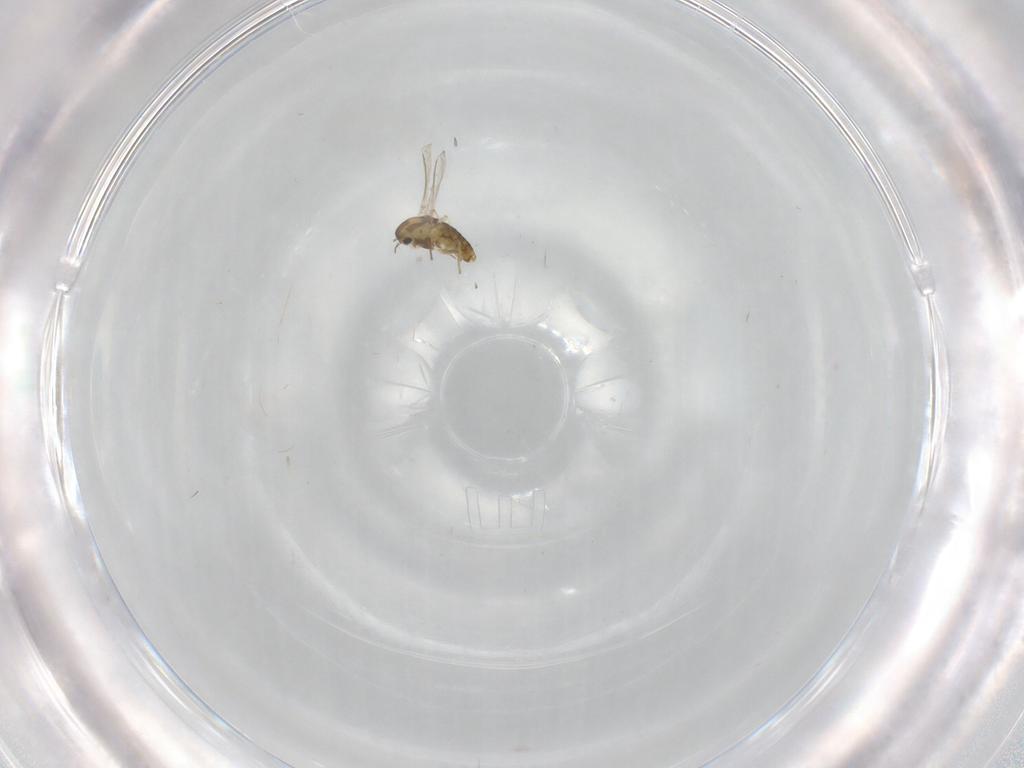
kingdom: Animalia
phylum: Arthropoda
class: Insecta
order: Diptera
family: Chironomidae
